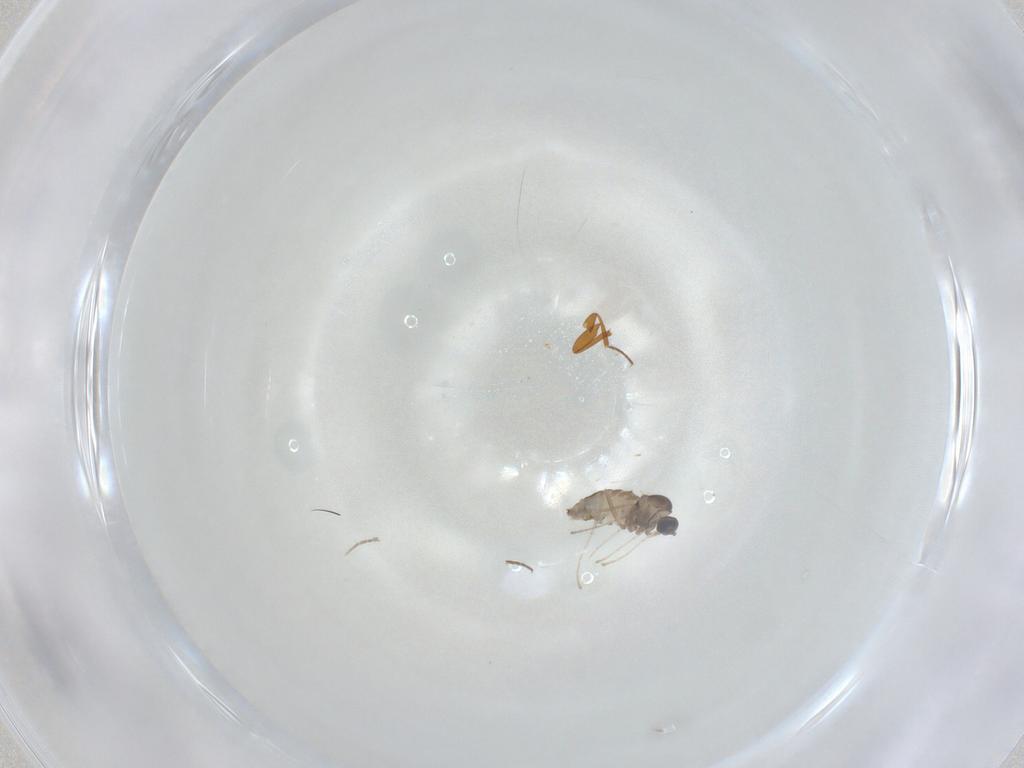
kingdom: Animalia
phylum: Arthropoda
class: Insecta
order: Diptera
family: Cecidomyiidae
